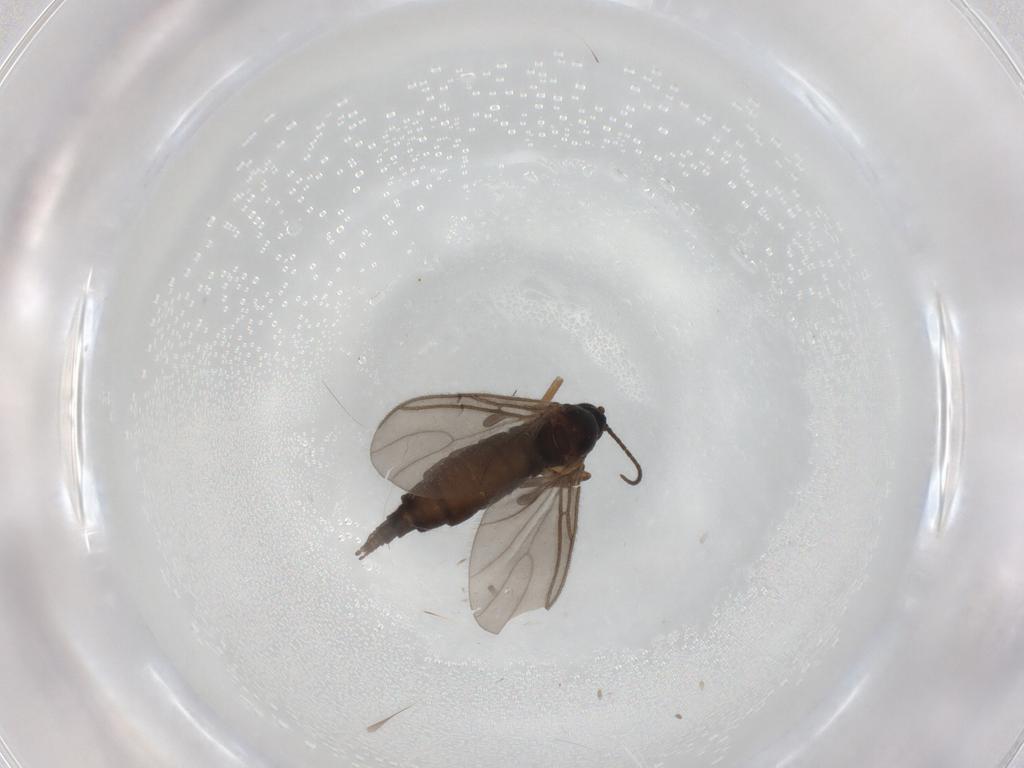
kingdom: Animalia
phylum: Arthropoda
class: Insecta
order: Diptera
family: Sciaridae
